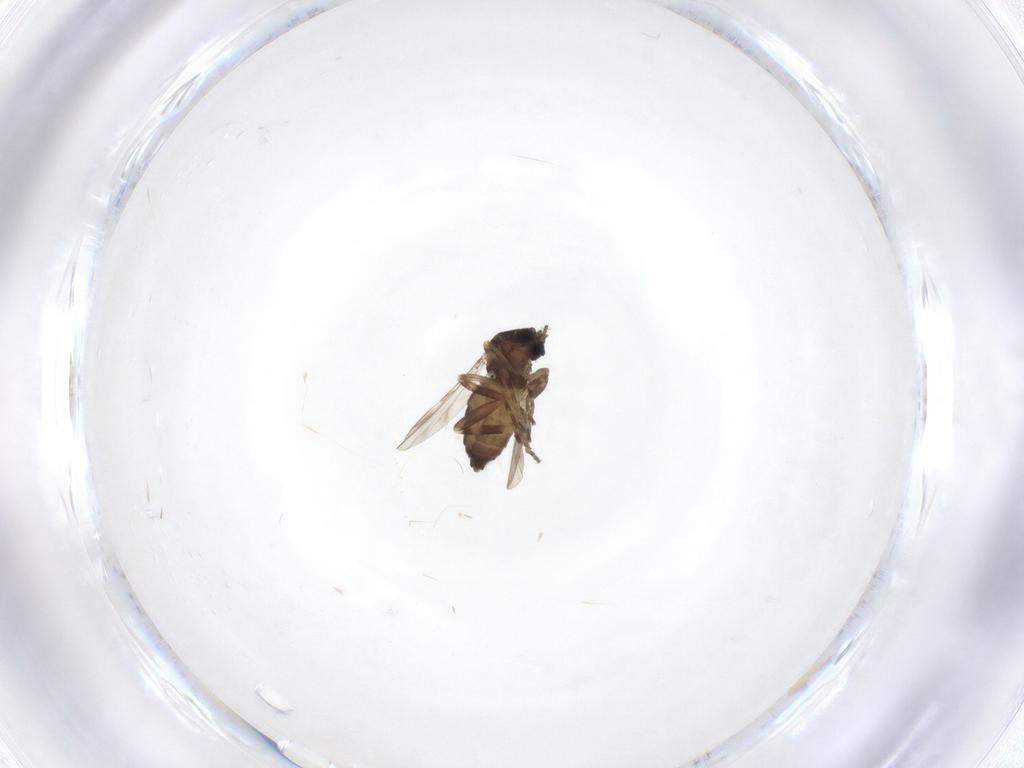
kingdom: Animalia
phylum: Arthropoda
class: Insecta
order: Diptera
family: Ceratopogonidae
